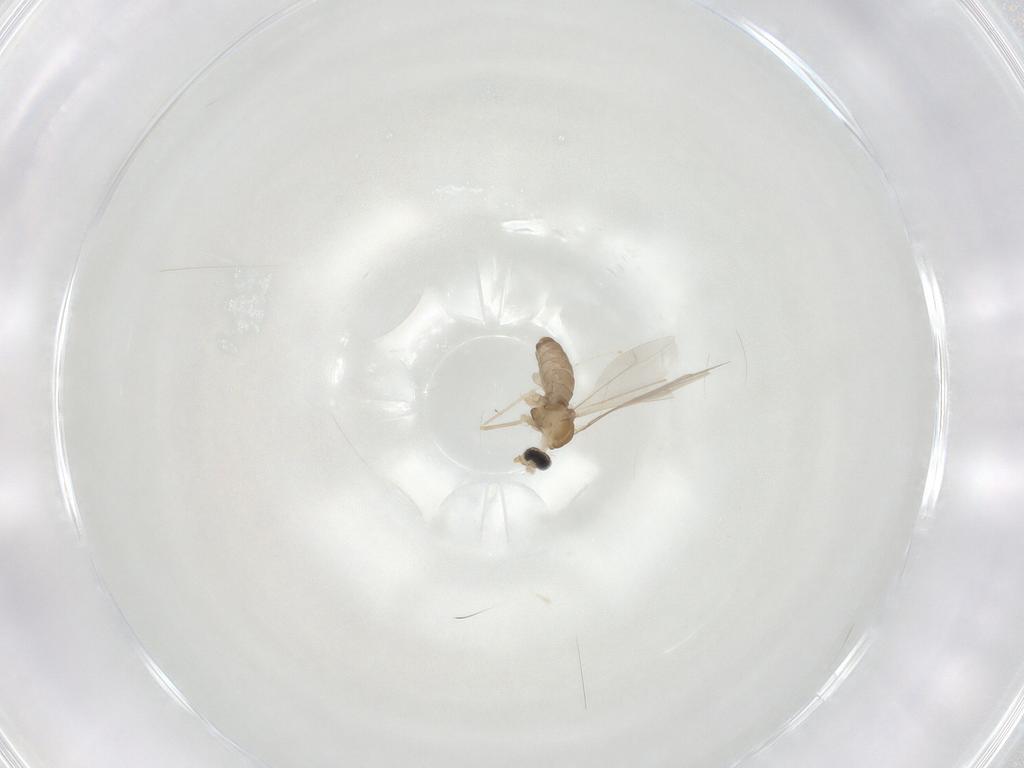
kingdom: Animalia
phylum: Arthropoda
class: Insecta
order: Diptera
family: Cecidomyiidae
